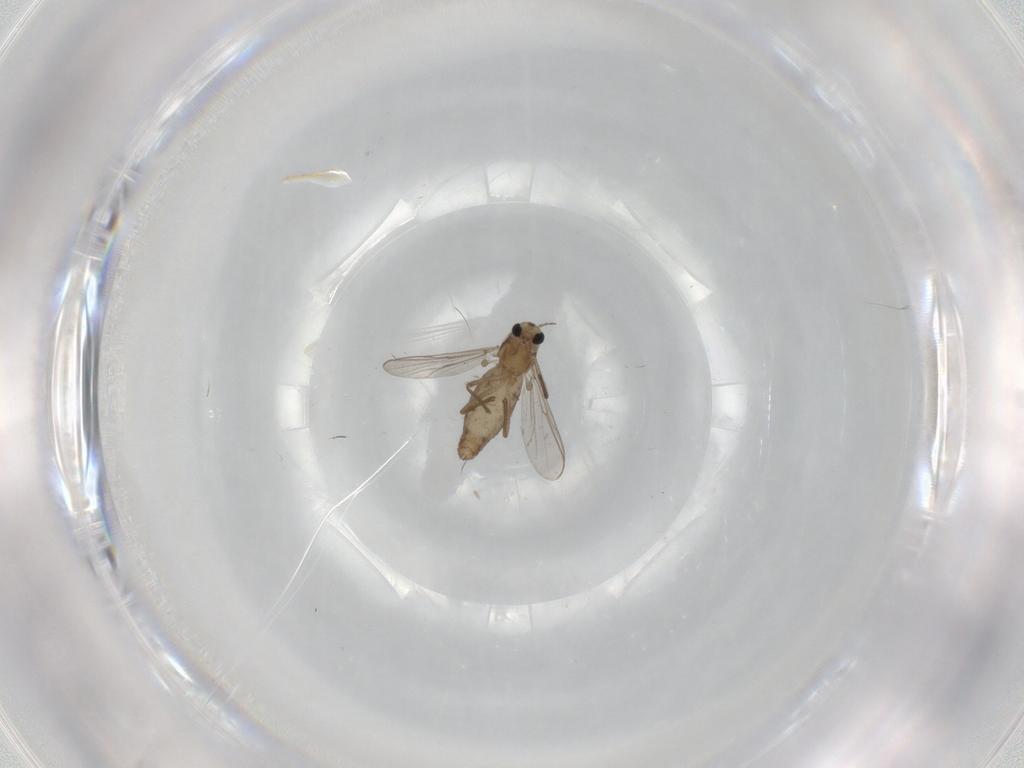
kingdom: Animalia
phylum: Arthropoda
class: Insecta
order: Diptera
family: Chironomidae
